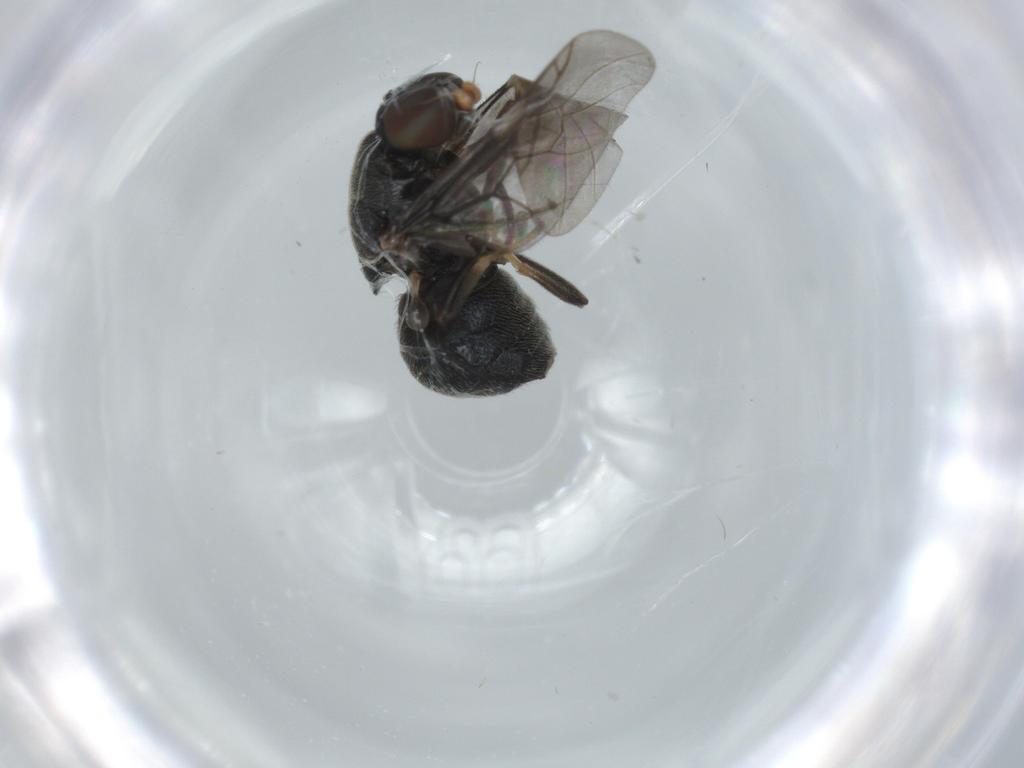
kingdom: Animalia
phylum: Arthropoda
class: Insecta
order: Diptera
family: Stratiomyidae
